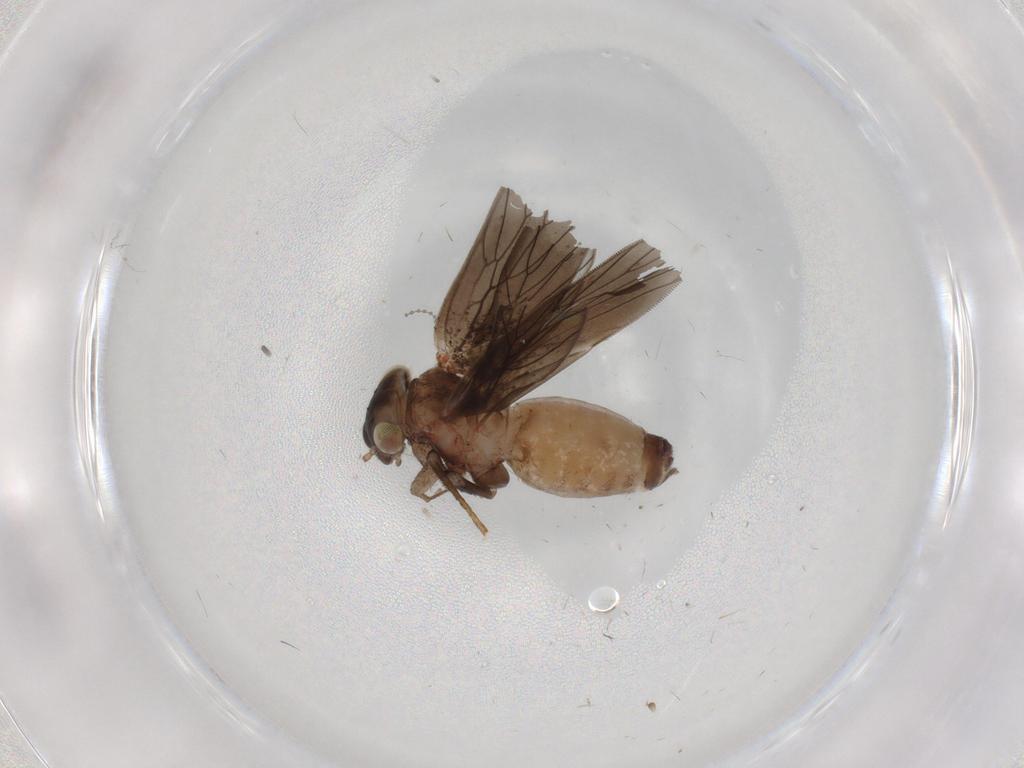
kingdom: Animalia
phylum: Arthropoda
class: Insecta
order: Psocodea
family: Lepidopsocidae
